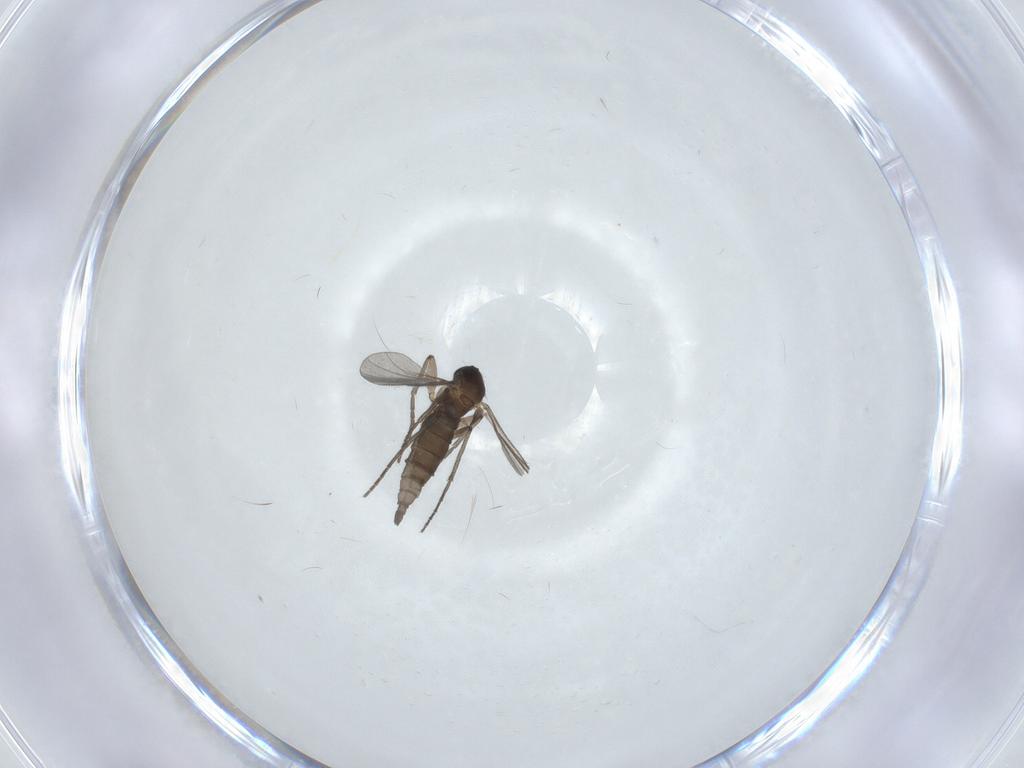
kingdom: Animalia
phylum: Arthropoda
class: Insecta
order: Diptera
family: Sciaridae
